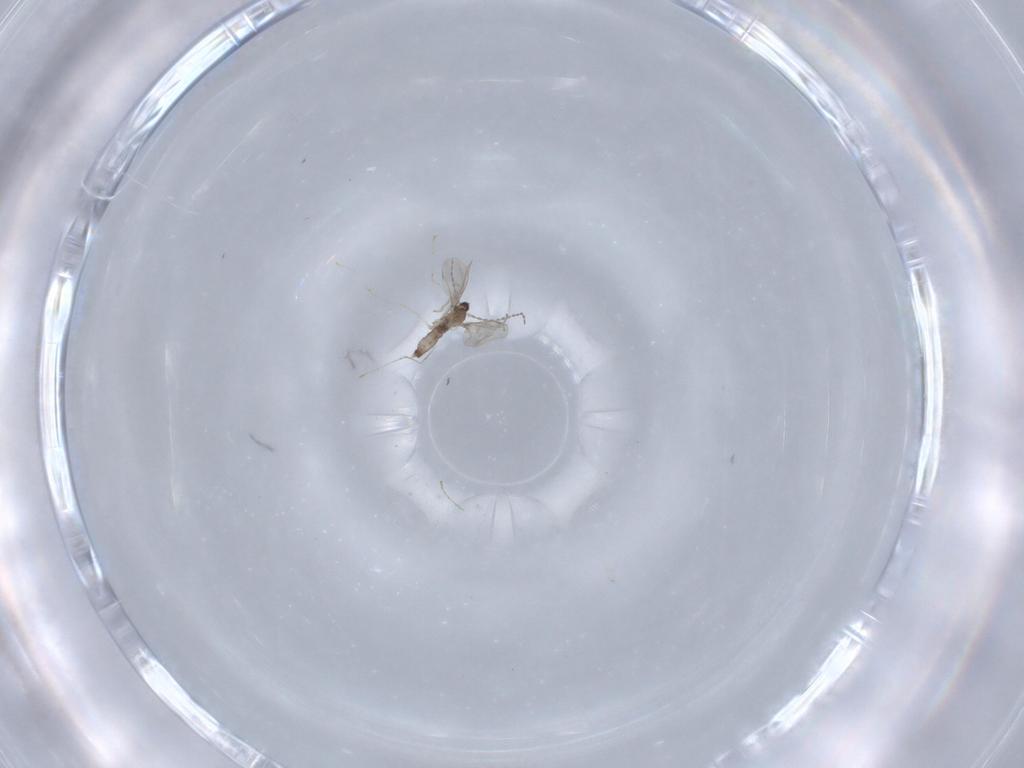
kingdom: Animalia
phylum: Arthropoda
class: Insecta
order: Diptera
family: Cecidomyiidae
